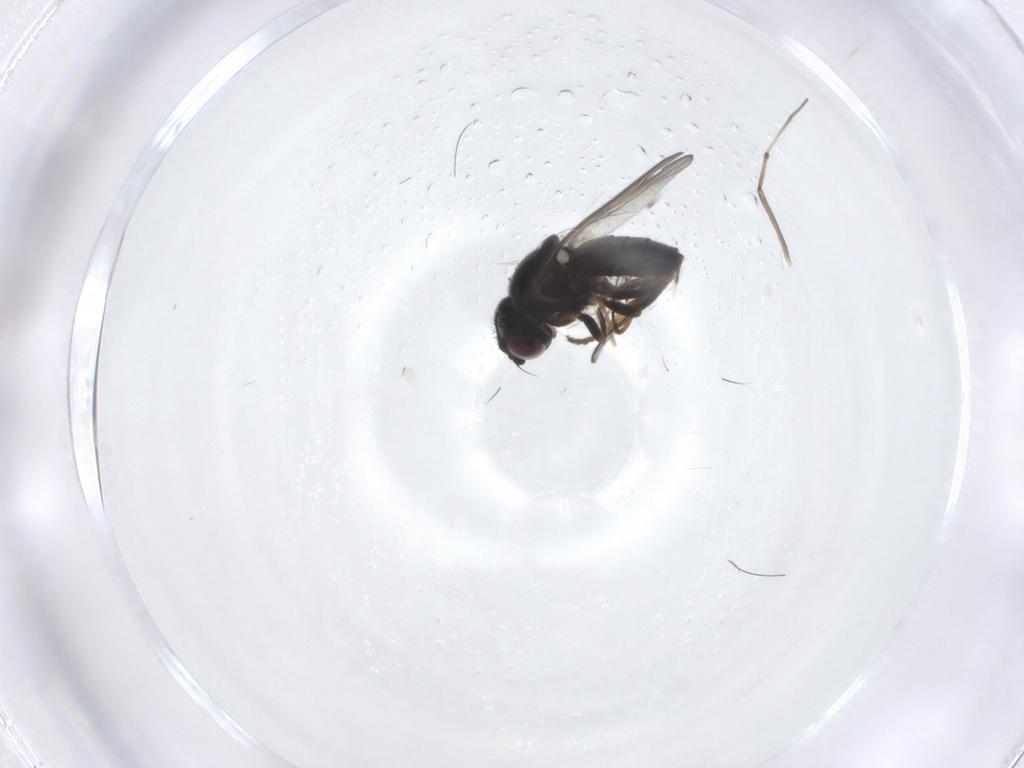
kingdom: Animalia
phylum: Arthropoda
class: Insecta
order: Diptera
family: Chloropidae
